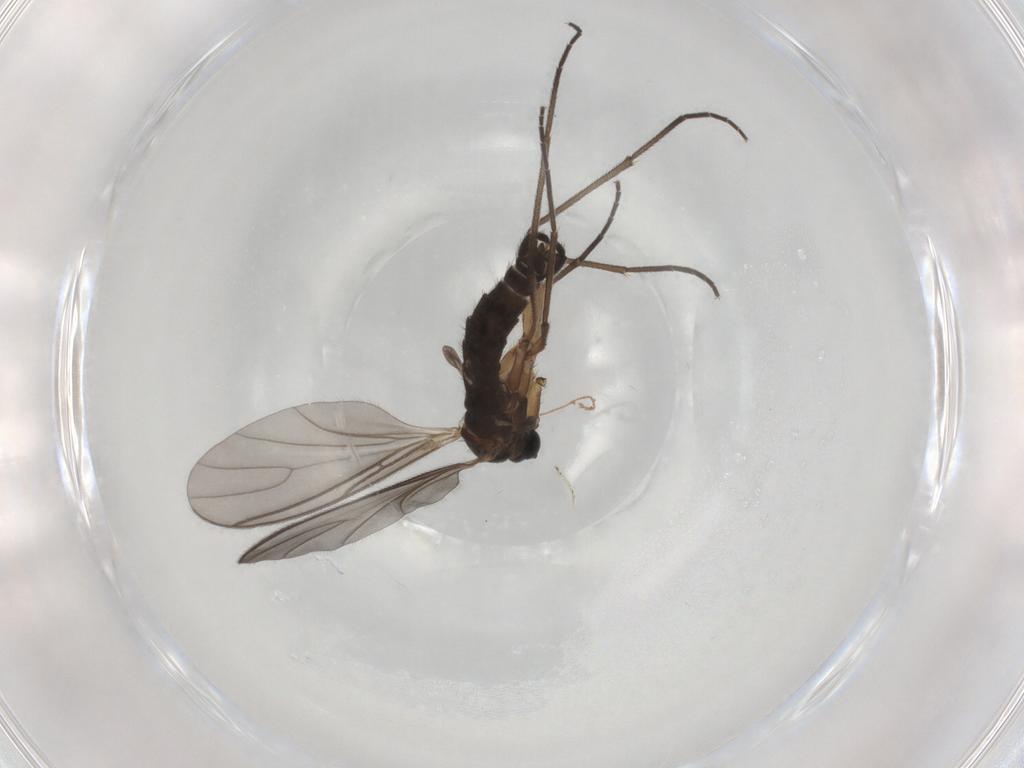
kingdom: Animalia
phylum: Arthropoda
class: Insecta
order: Diptera
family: Sciaridae
